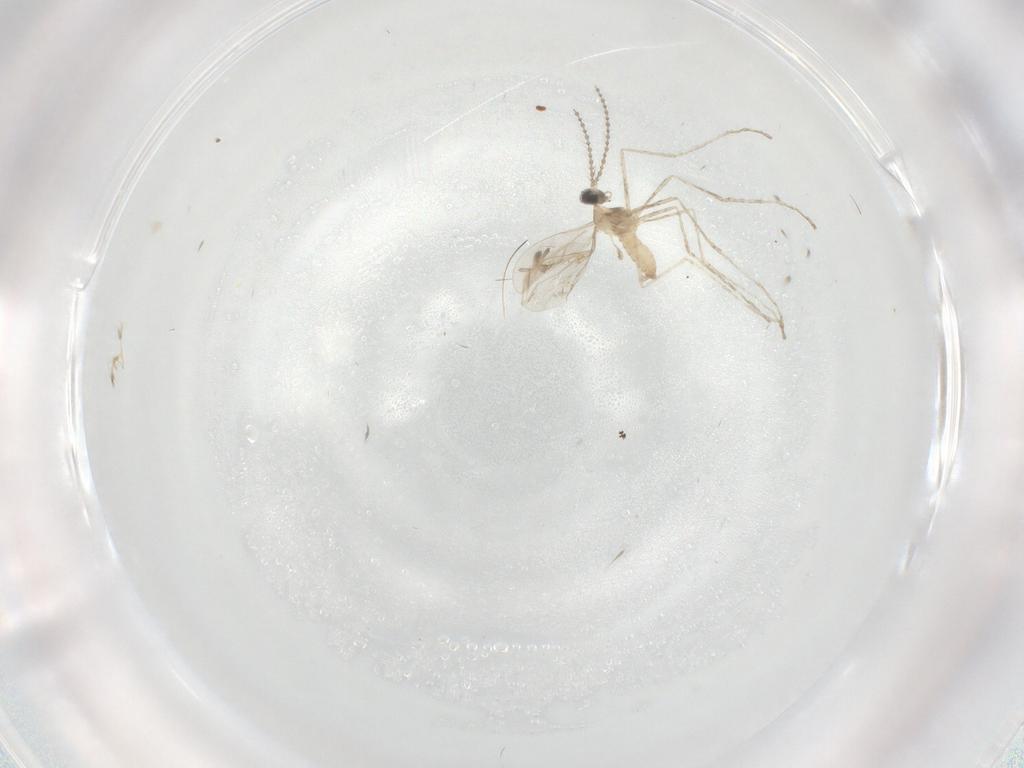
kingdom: Animalia
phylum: Arthropoda
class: Insecta
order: Diptera
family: Cecidomyiidae
